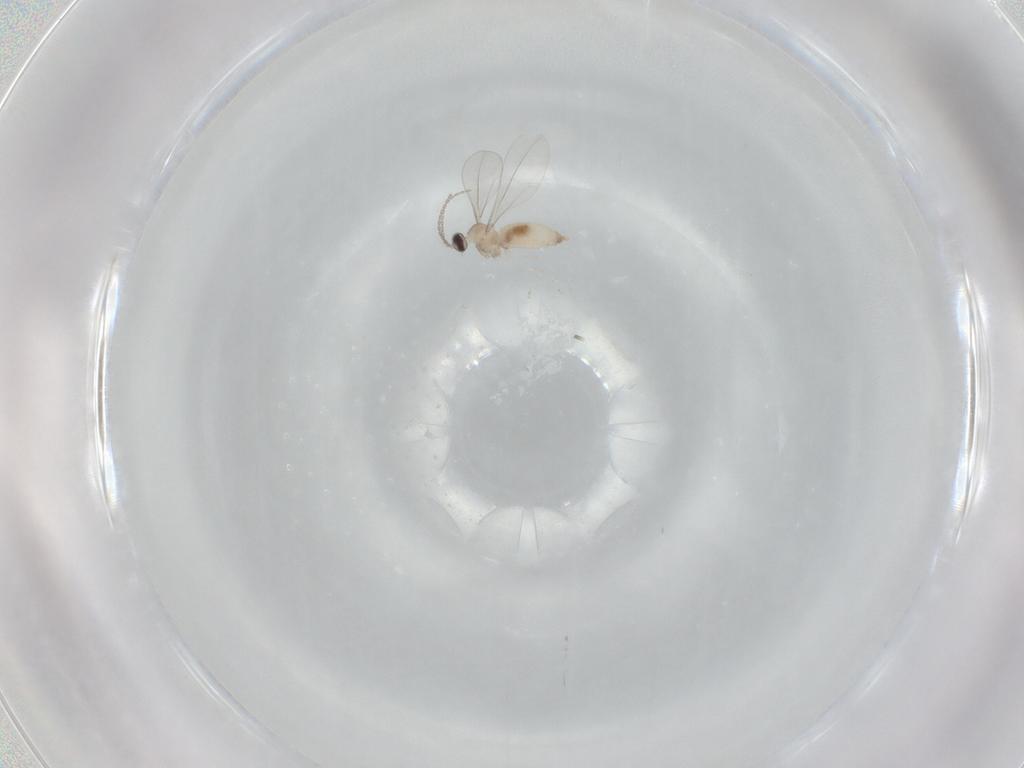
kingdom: Animalia
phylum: Arthropoda
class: Insecta
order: Diptera
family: Cecidomyiidae
